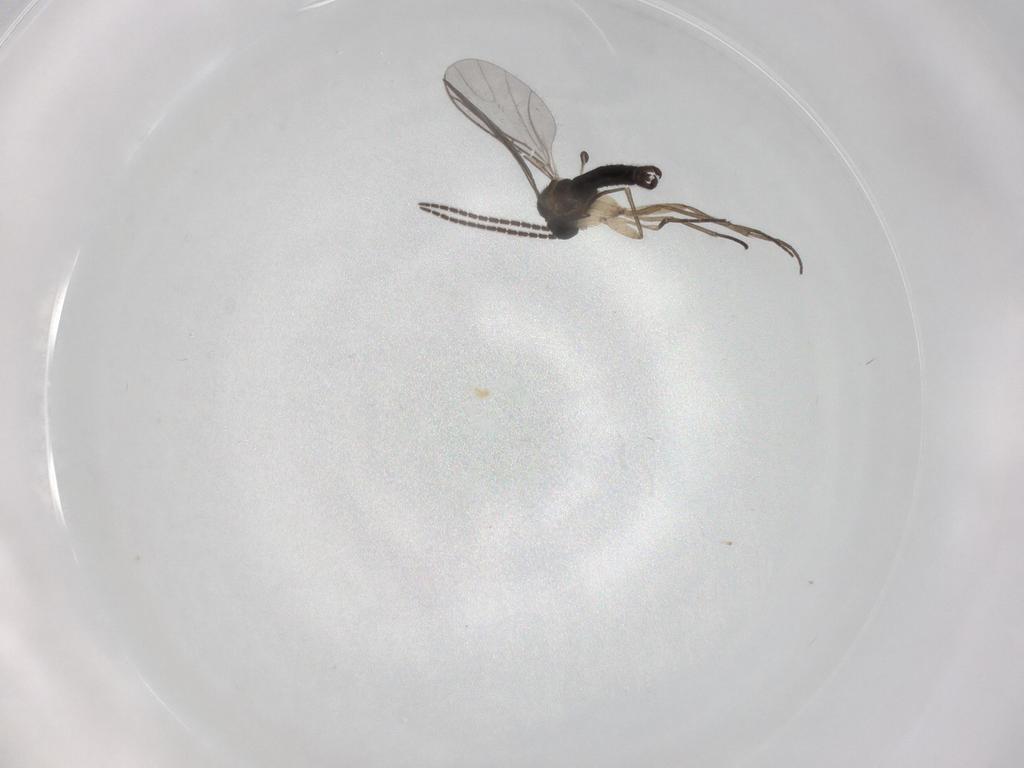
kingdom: Animalia
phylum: Arthropoda
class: Insecta
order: Diptera
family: Sciaridae
